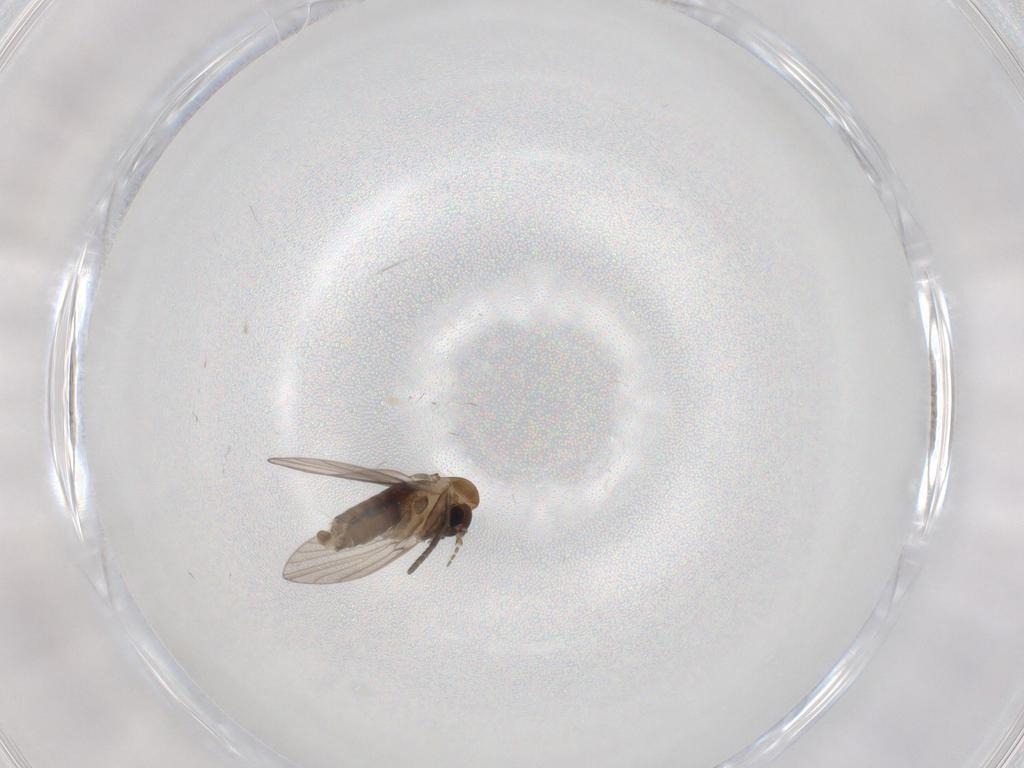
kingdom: Animalia
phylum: Arthropoda
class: Insecta
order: Diptera
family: Psychodidae
